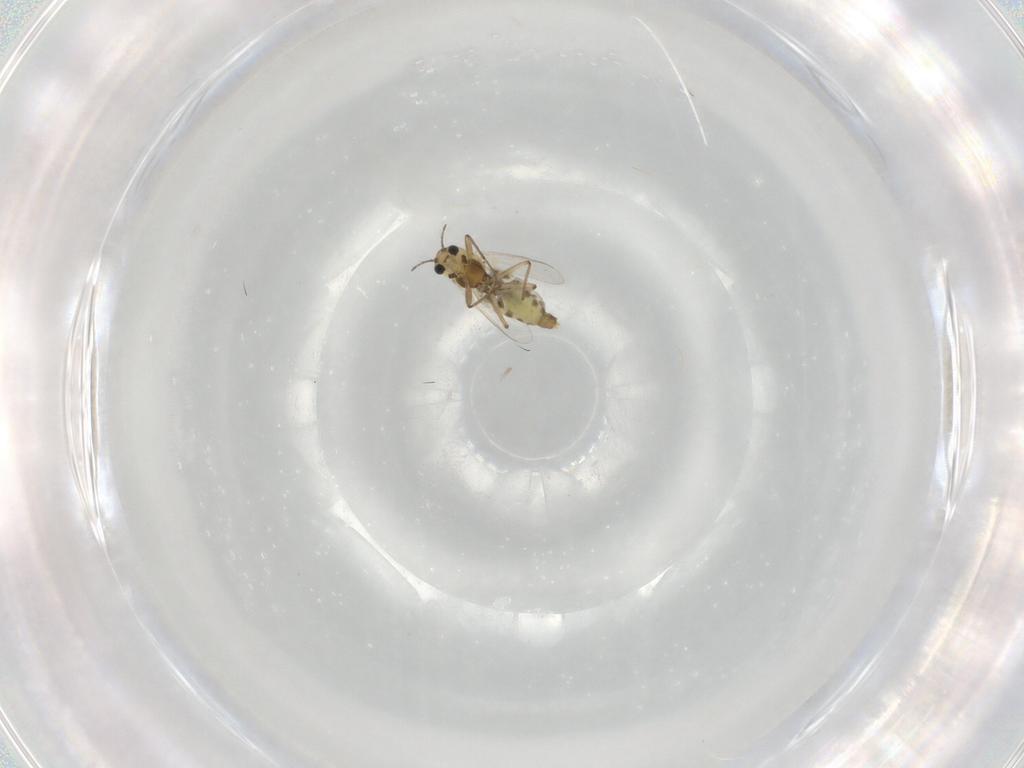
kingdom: Animalia
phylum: Arthropoda
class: Insecta
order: Diptera
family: Chironomidae
